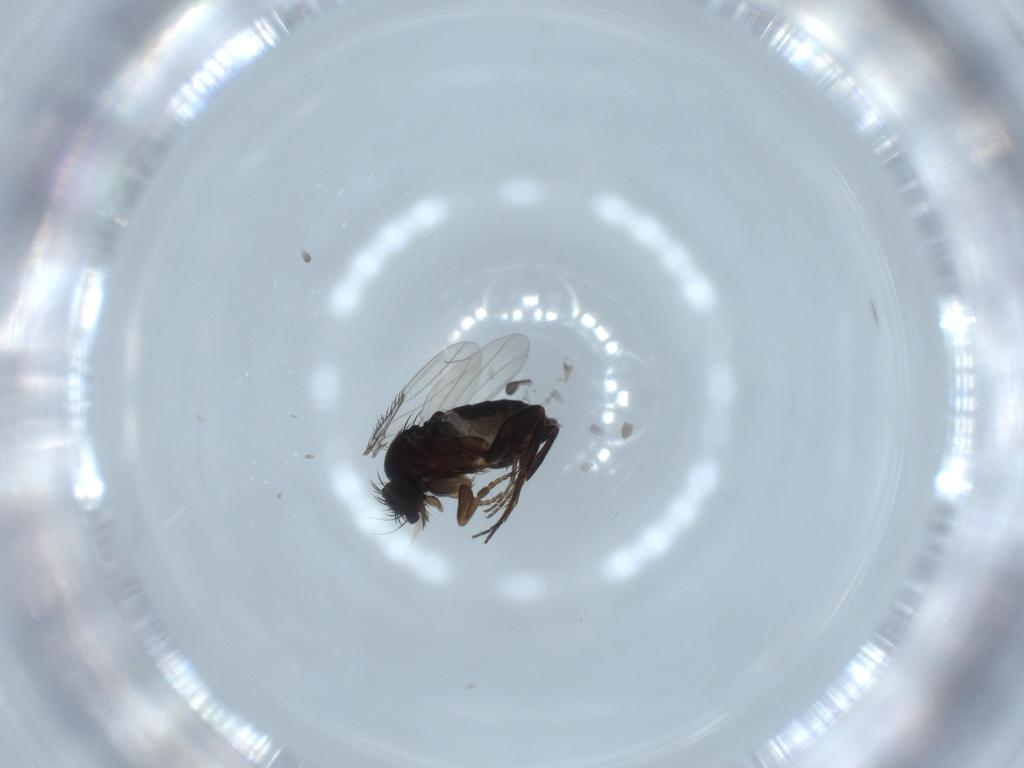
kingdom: Animalia
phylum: Arthropoda
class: Insecta
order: Diptera
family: Phoridae
